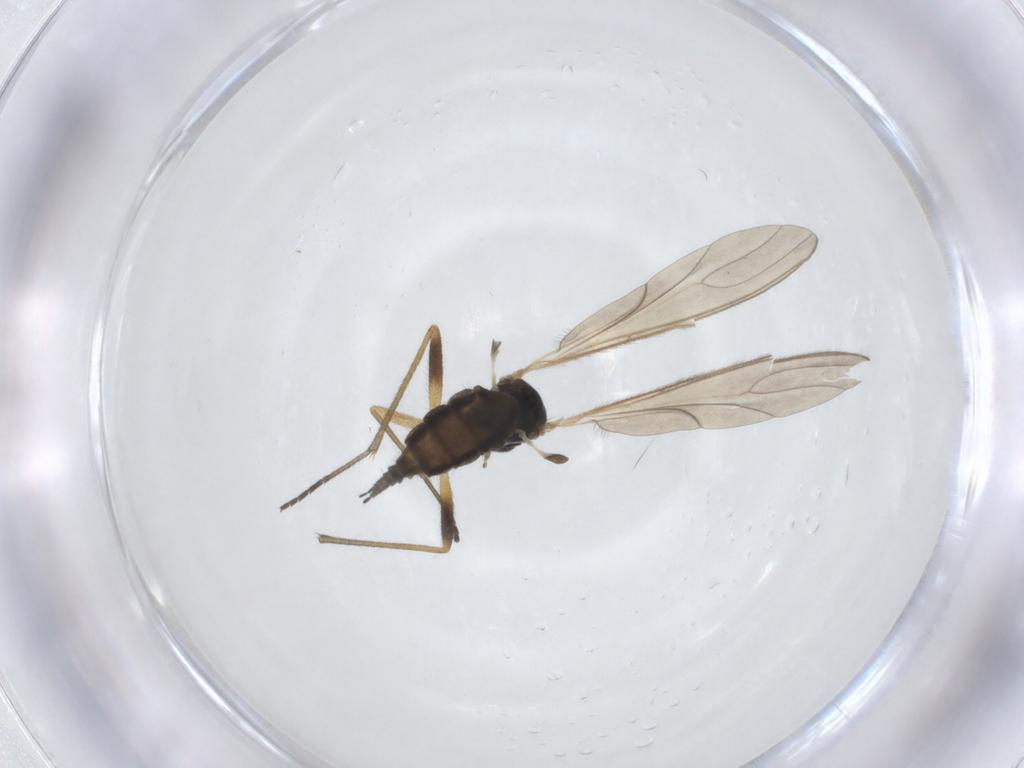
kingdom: Animalia
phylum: Arthropoda
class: Insecta
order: Diptera
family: Sciaridae
